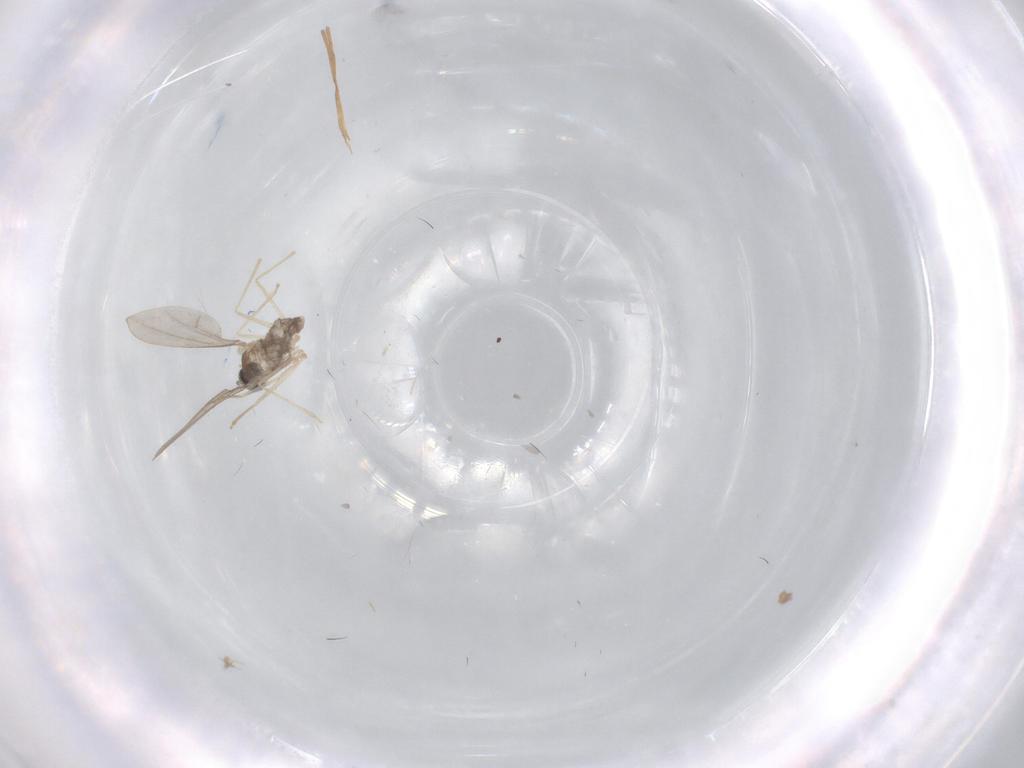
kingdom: Animalia
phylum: Arthropoda
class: Insecta
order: Diptera
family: Cecidomyiidae
